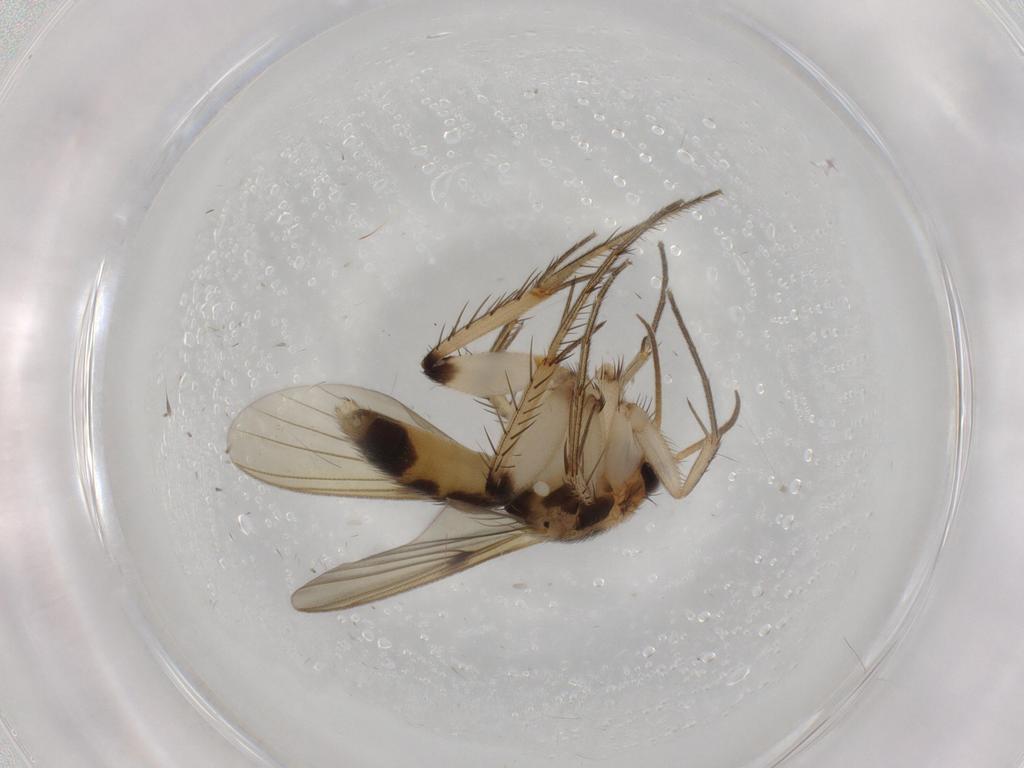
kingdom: Animalia
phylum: Arthropoda
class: Insecta
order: Diptera
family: Mycetophilidae
